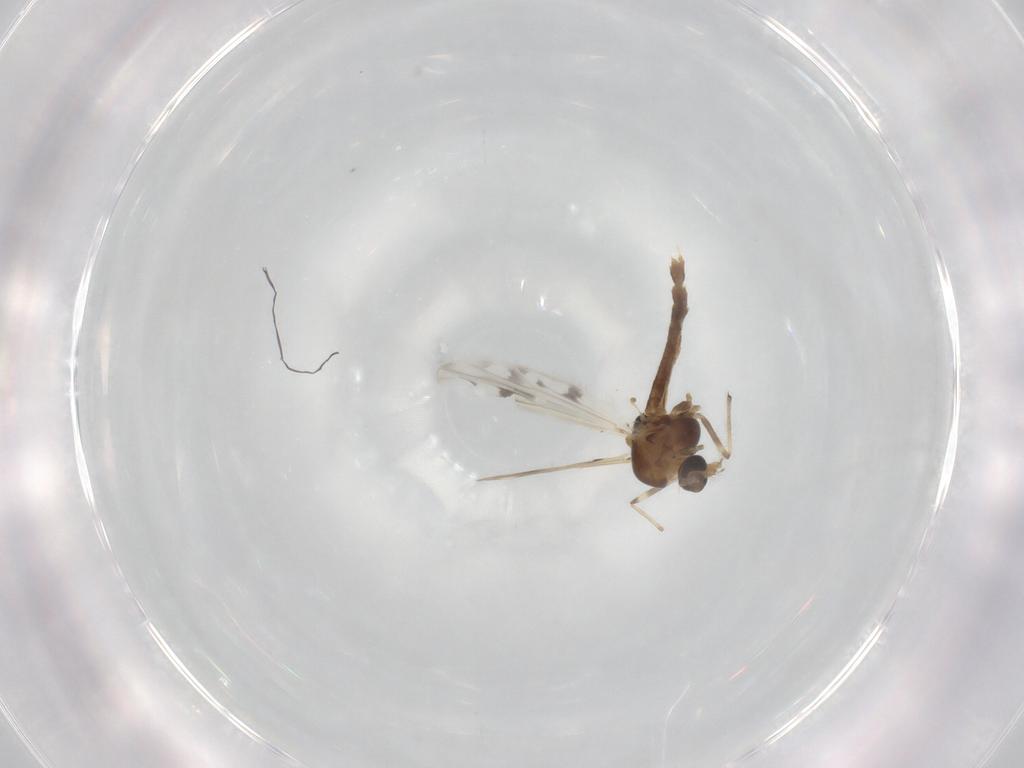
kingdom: Animalia
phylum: Arthropoda
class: Insecta
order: Diptera
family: Chironomidae
